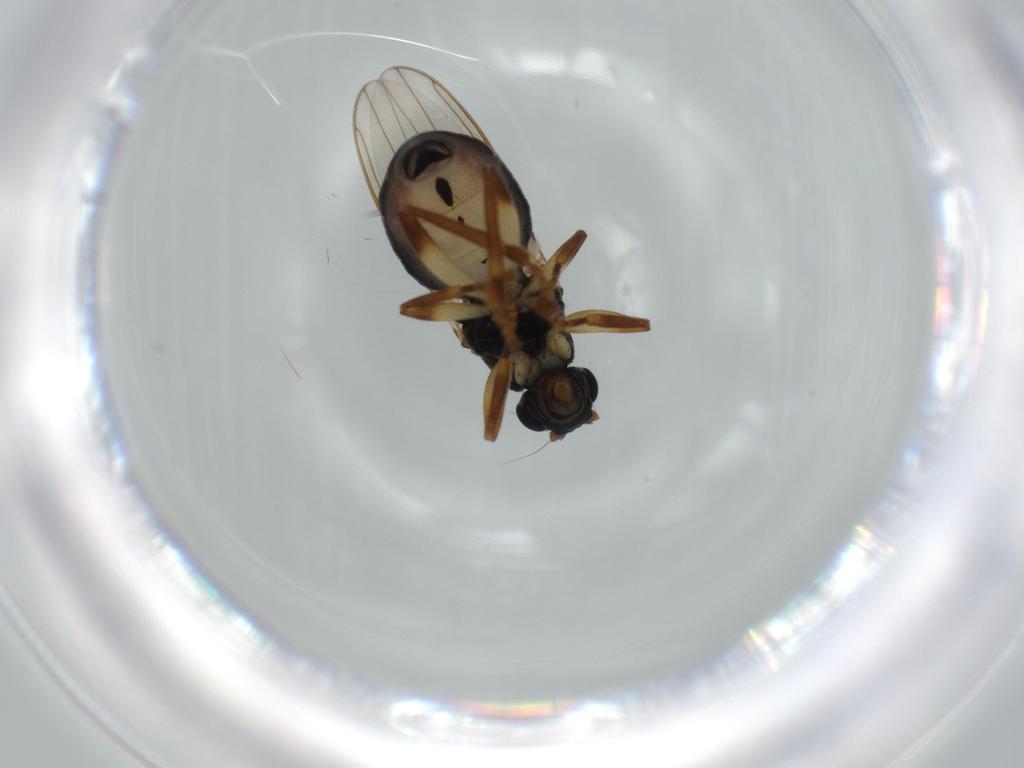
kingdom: Animalia
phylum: Arthropoda
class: Insecta
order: Diptera
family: Sphaeroceridae
